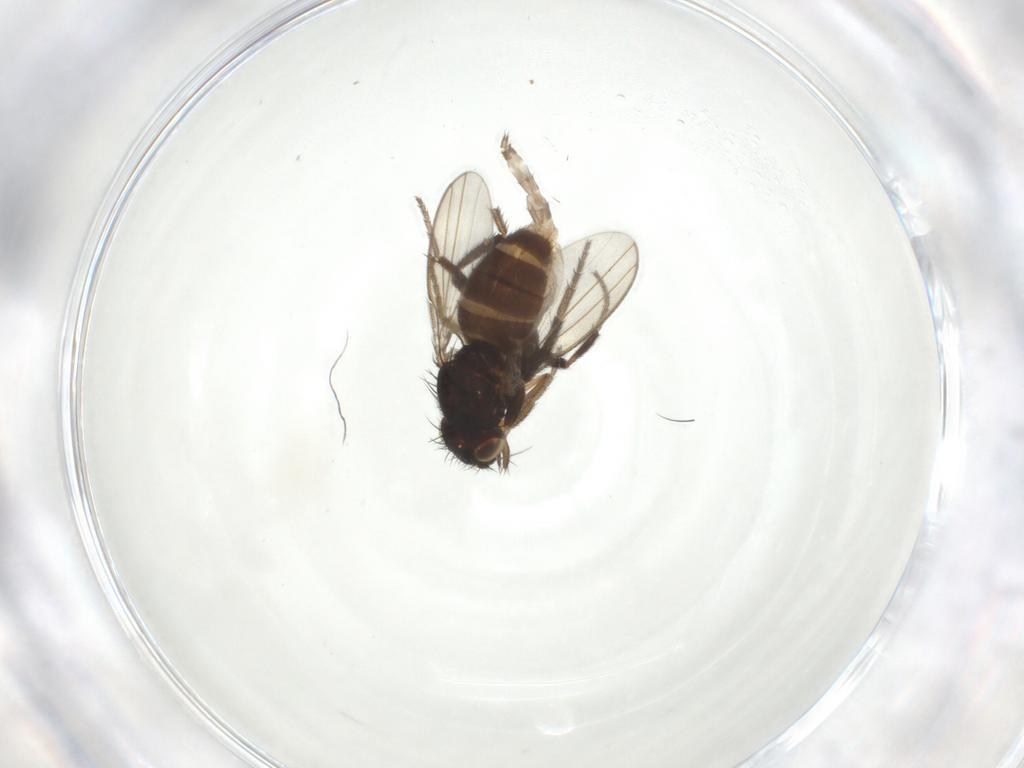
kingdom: Animalia
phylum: Arthropoda
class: Insecta
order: Diptera
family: Milichiidae
